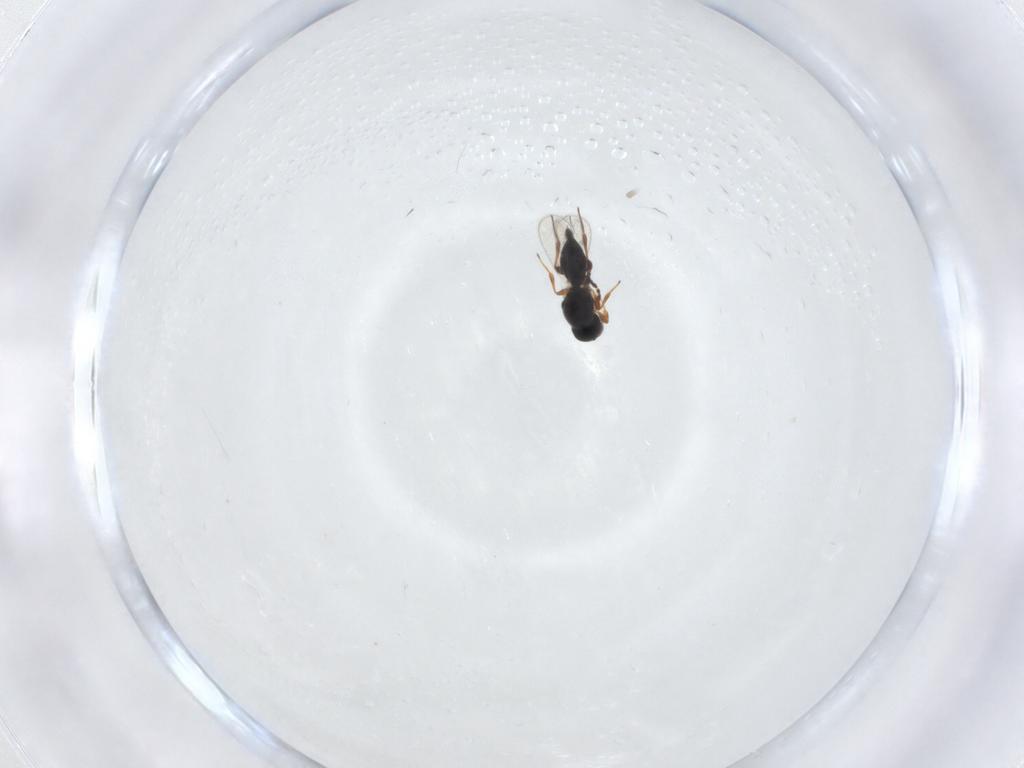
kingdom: Animalia
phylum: Arthropoda
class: Insecta
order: Hymenoptera
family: Platygastridae
